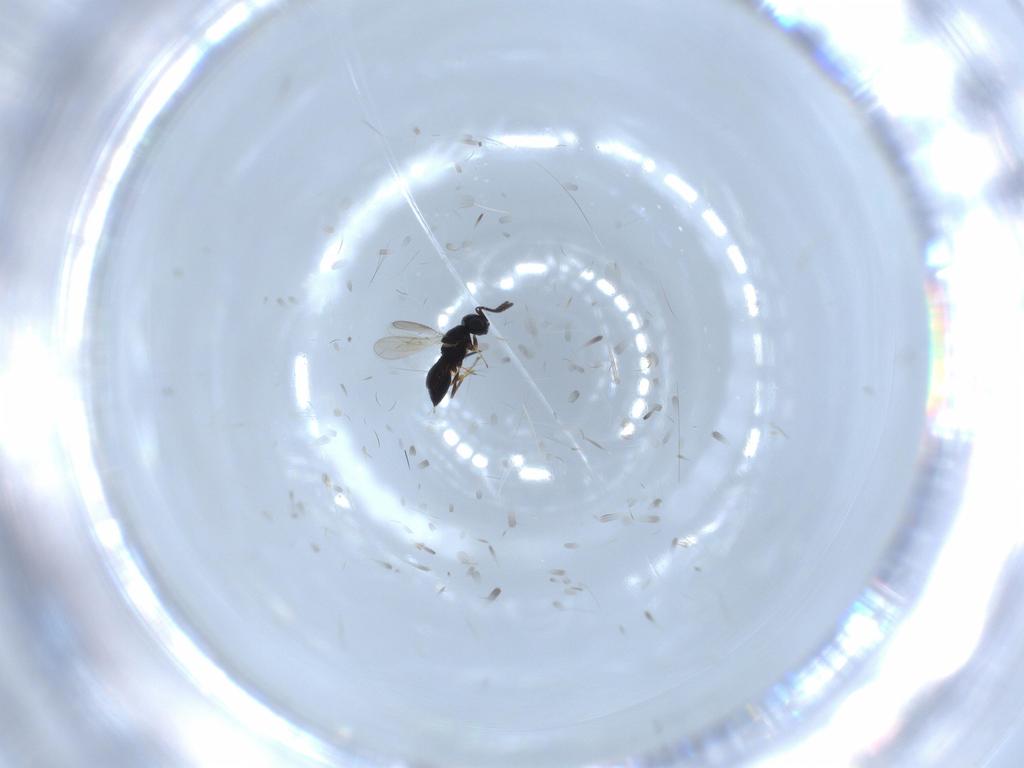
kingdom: Animalia
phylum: Arthropoda
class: Insecta
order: Hymenoptera
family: Scelionidae
